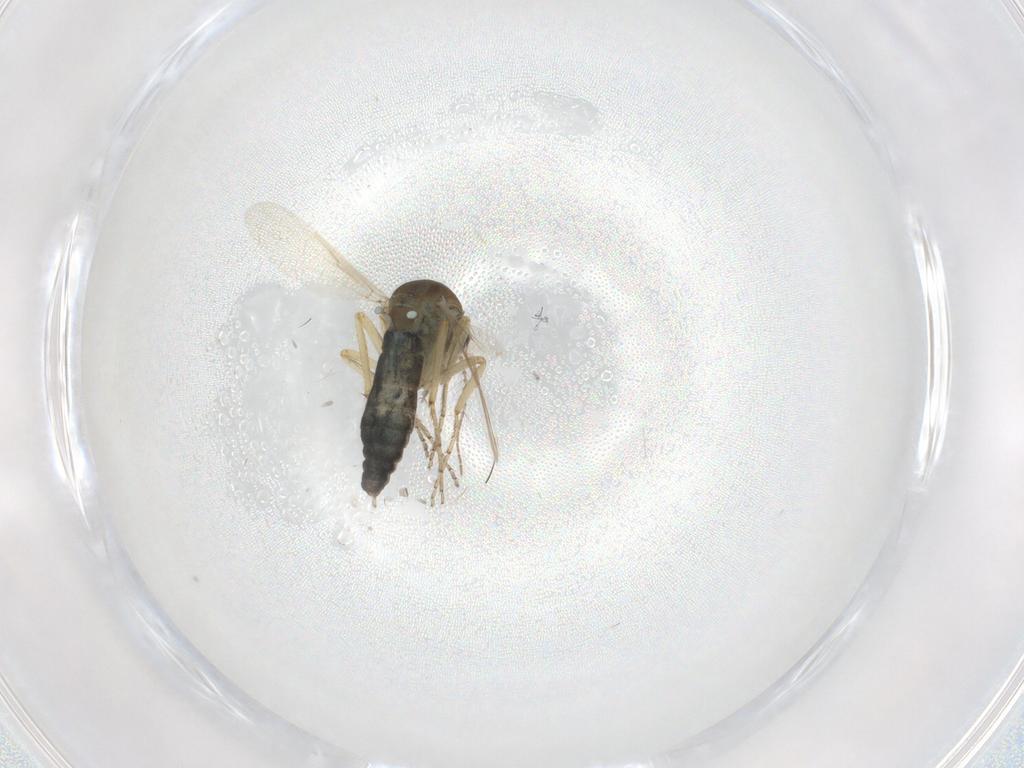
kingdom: Animalia
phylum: Arthropoda
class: Insecta
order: Diptera
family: Ceratopogonidae
